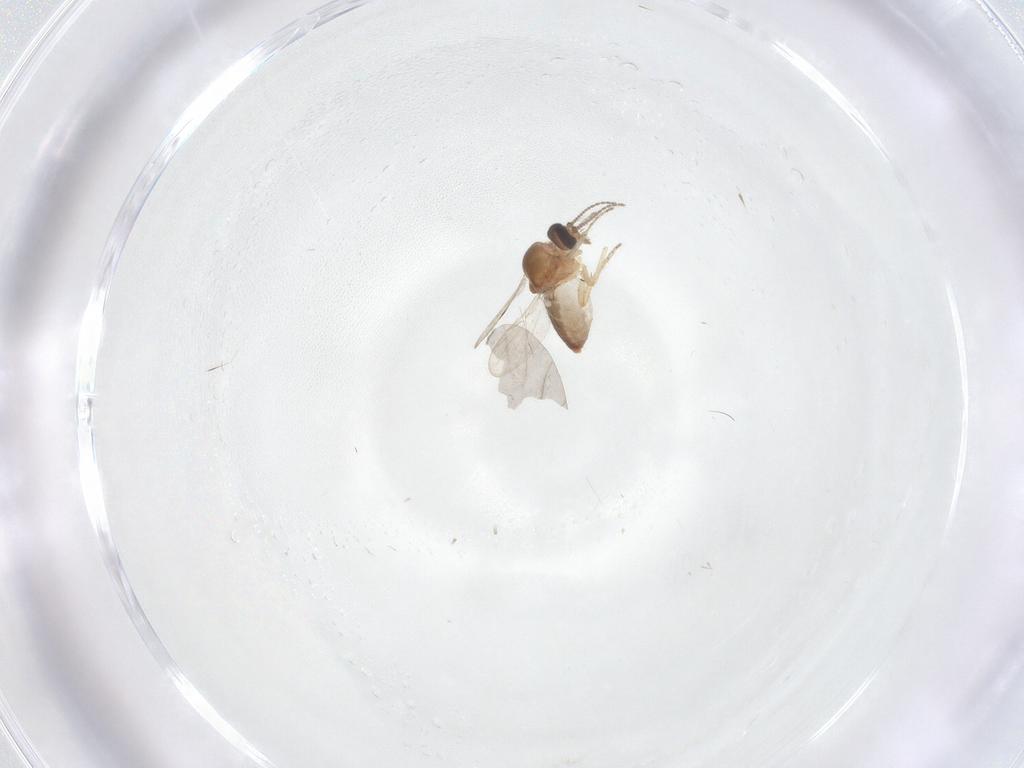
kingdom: Animalia
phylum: Arthropoda
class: Insecta
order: Diptera
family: Ceratopogonidae
